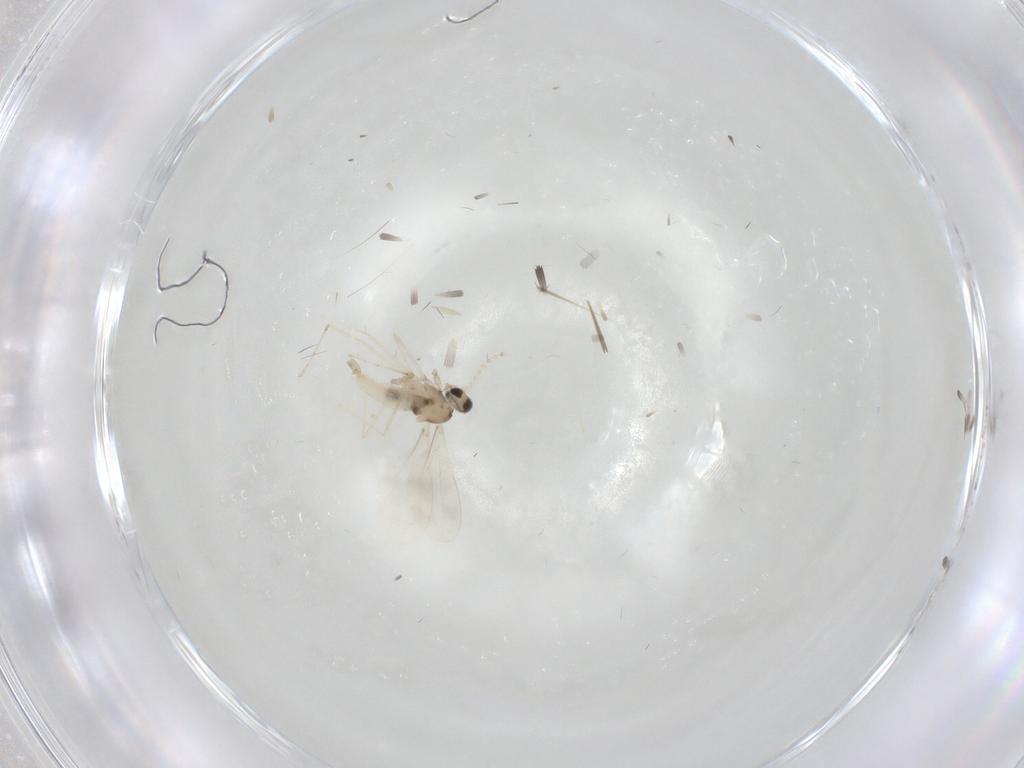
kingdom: Animalia
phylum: Arthropoda
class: Insecta
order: Diptera
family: Cecidomyiidae
